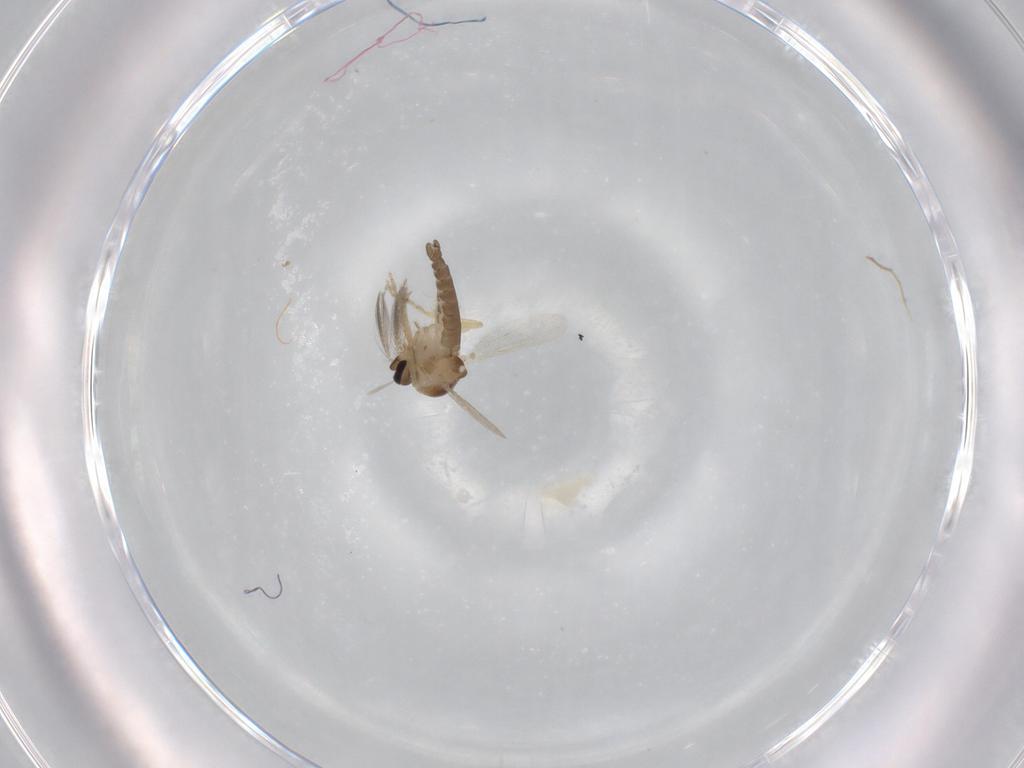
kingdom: Animalia
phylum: Arthropoda
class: Insecta
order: Diptera
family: Ceratopogonidae
